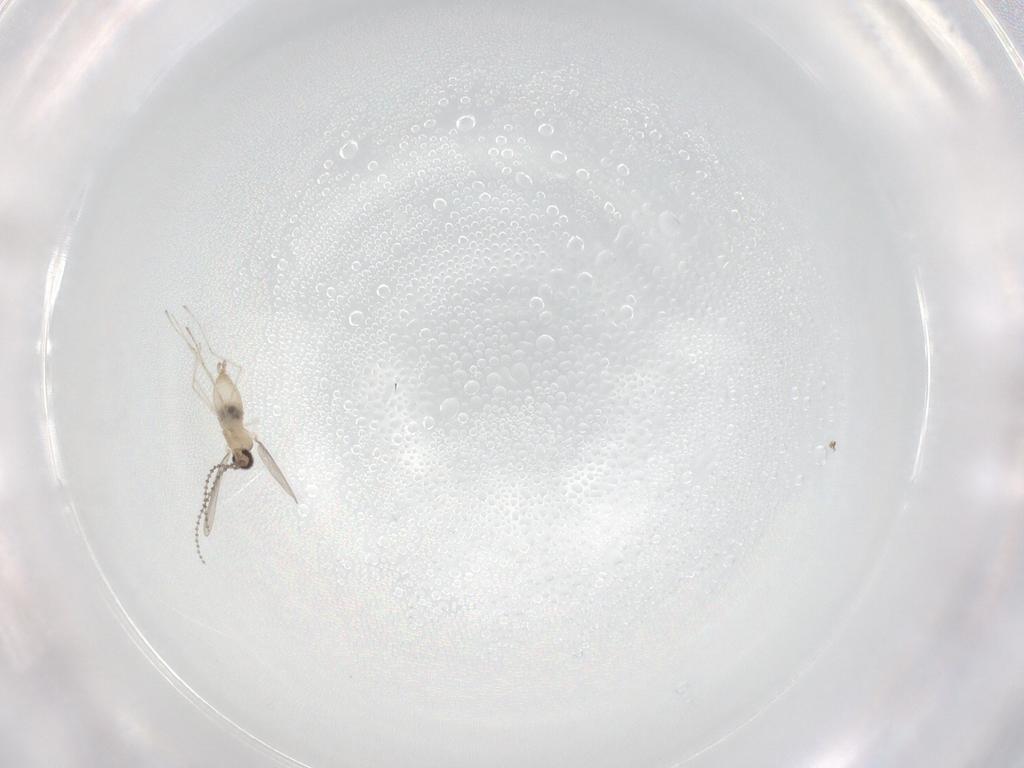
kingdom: Animalia
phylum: Arthropoda
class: Insecta
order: Diptera
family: Cecidomyiidae
